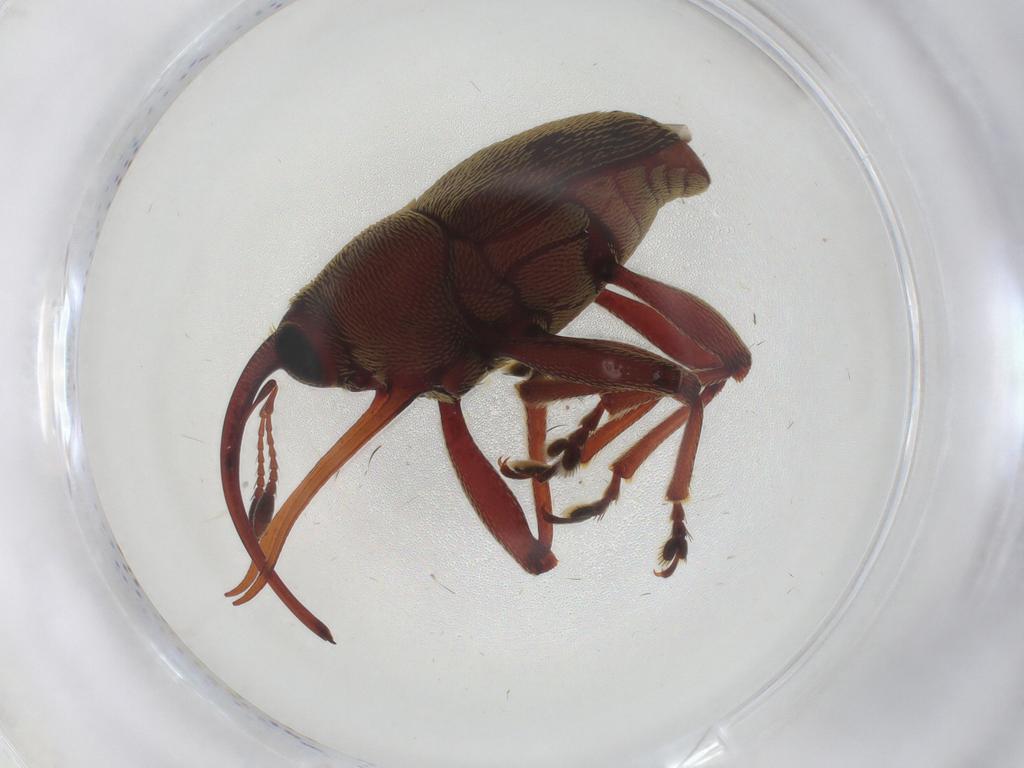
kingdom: Animalia
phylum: Arthropoda
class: Insecta
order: Coleoptera
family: Curculionidae
